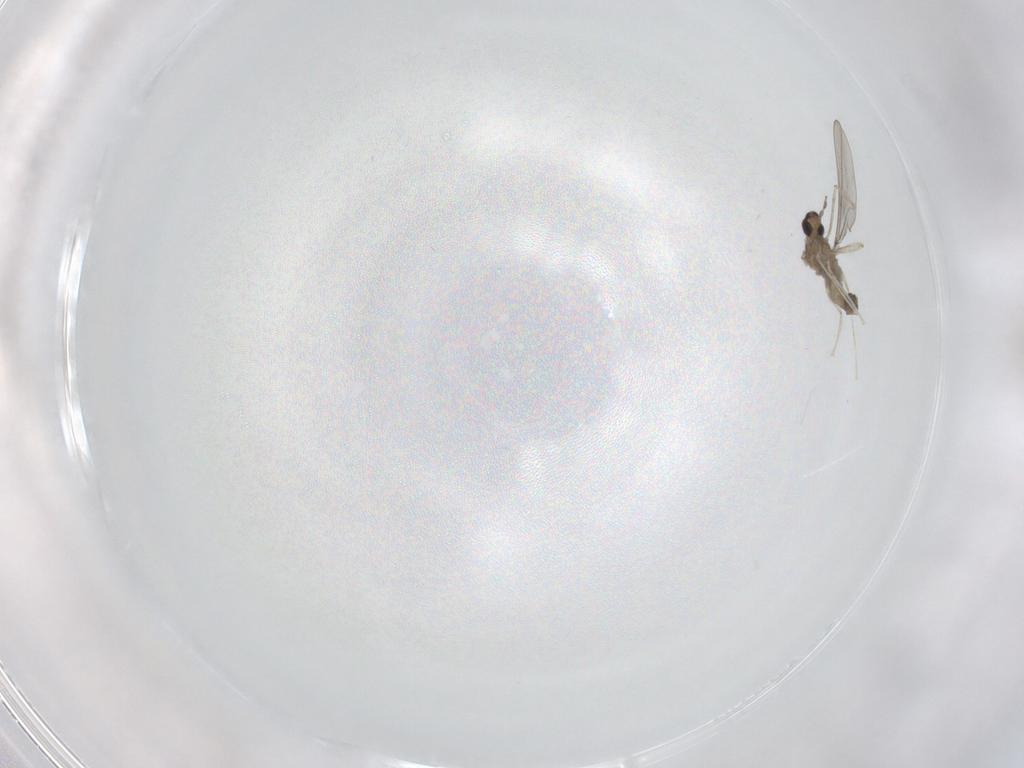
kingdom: Animalia
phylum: Arthropoda
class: Insecta
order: Diptera
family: Cecidomyiidae
